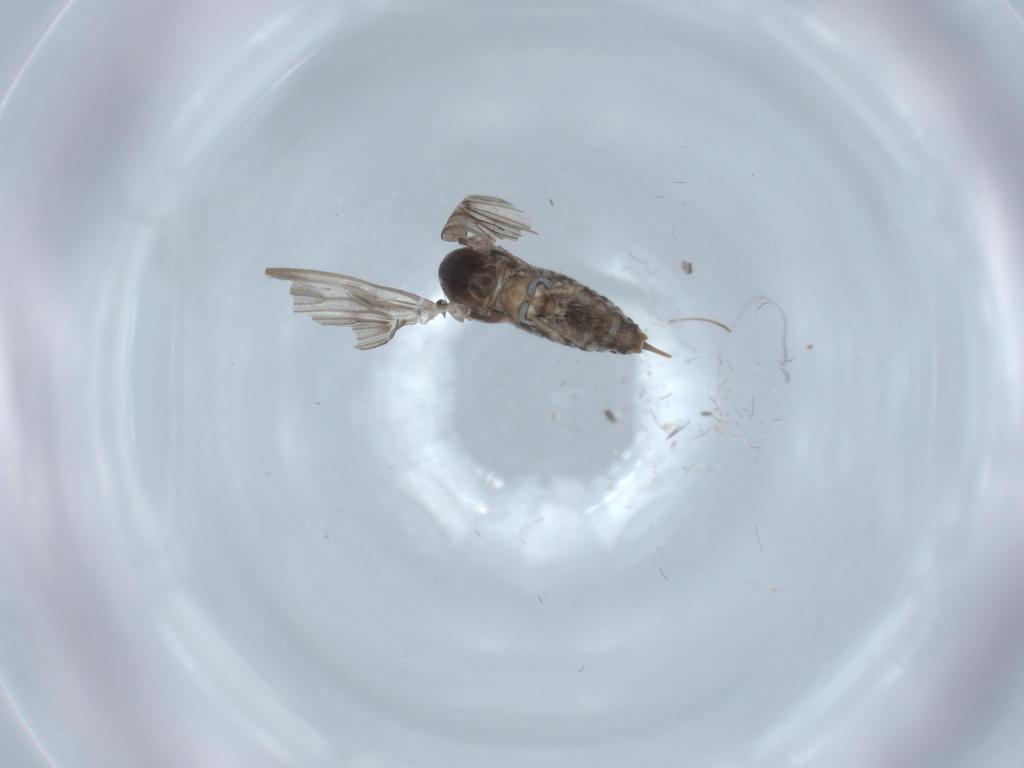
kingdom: Animalia
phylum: Arthropoda
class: Insecta
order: Diptera
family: Psychodidae
